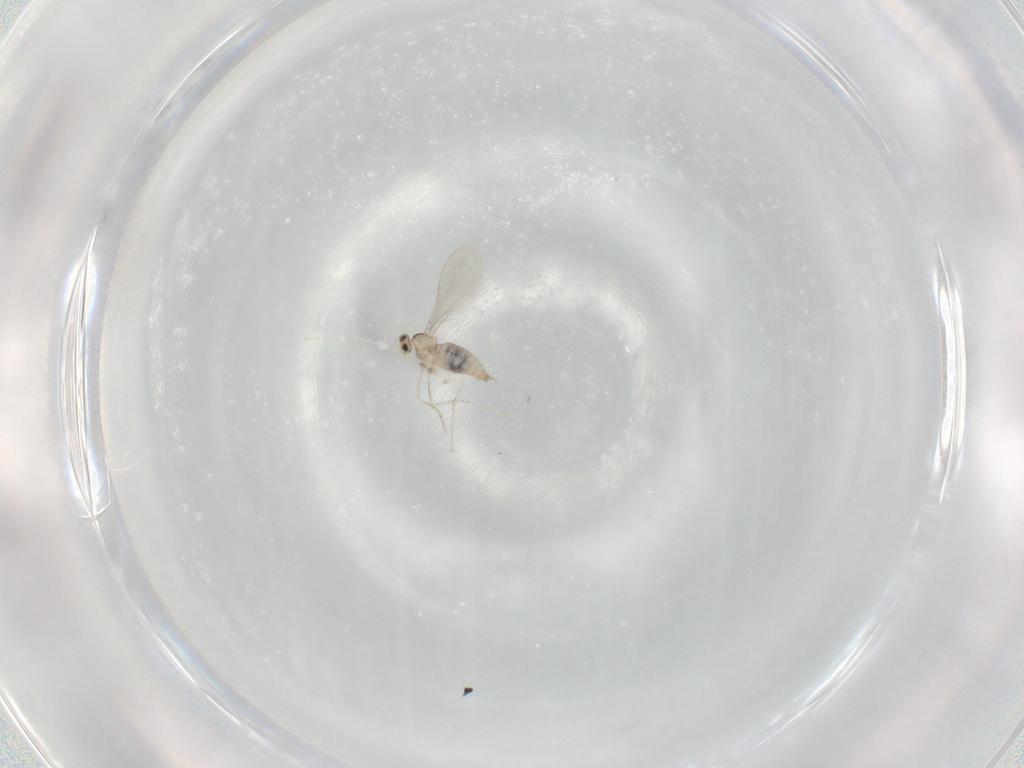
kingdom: Animalia
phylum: Arthropoda
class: Insecta
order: Diptera
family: Cecidomyiidae
